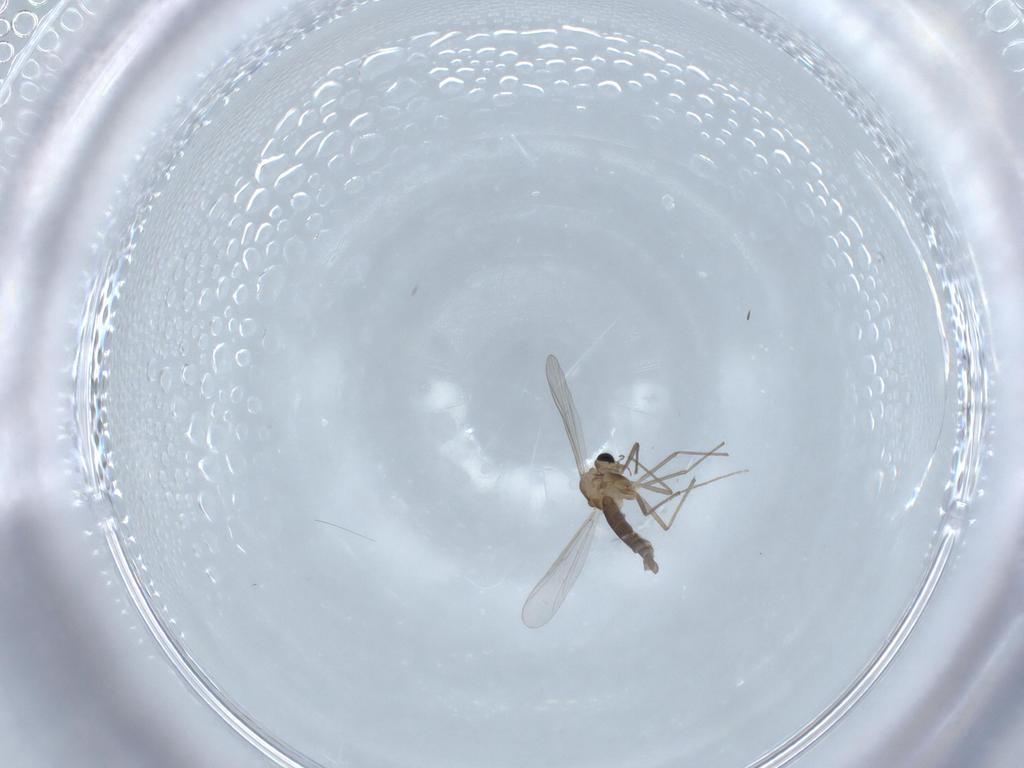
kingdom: Animalia
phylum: Arthropoda
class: Insecta
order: Diptera
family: Chironomidae
